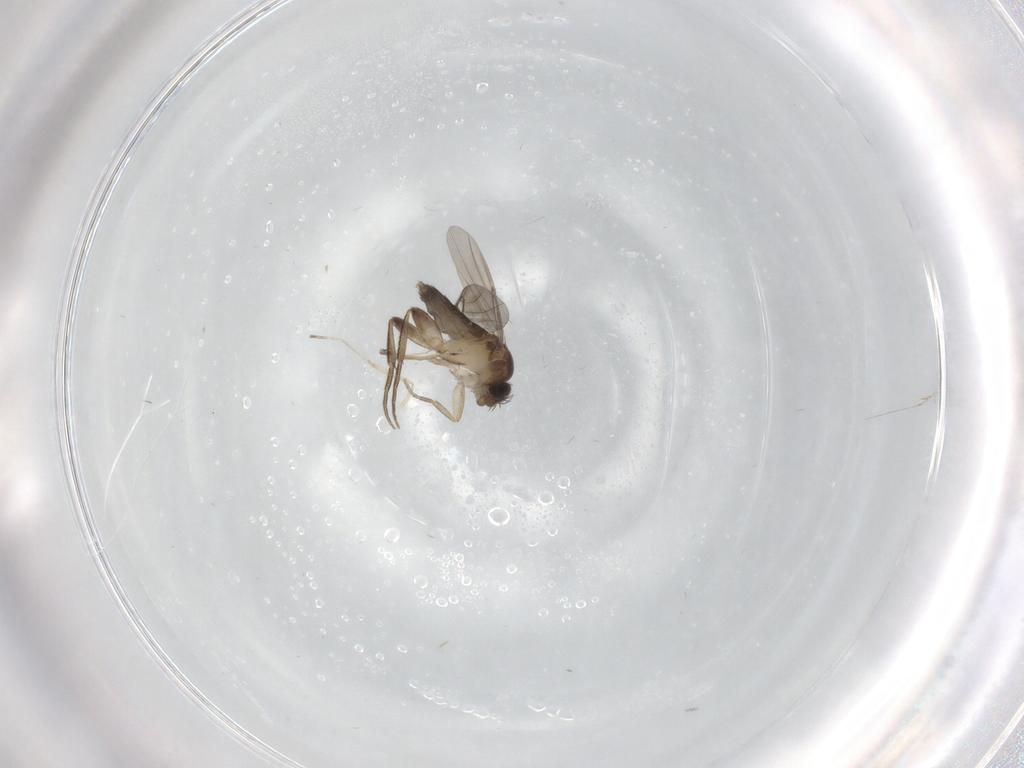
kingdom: Animalia
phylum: Arthropoda
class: Insecta
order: Diptera
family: Phoridae
